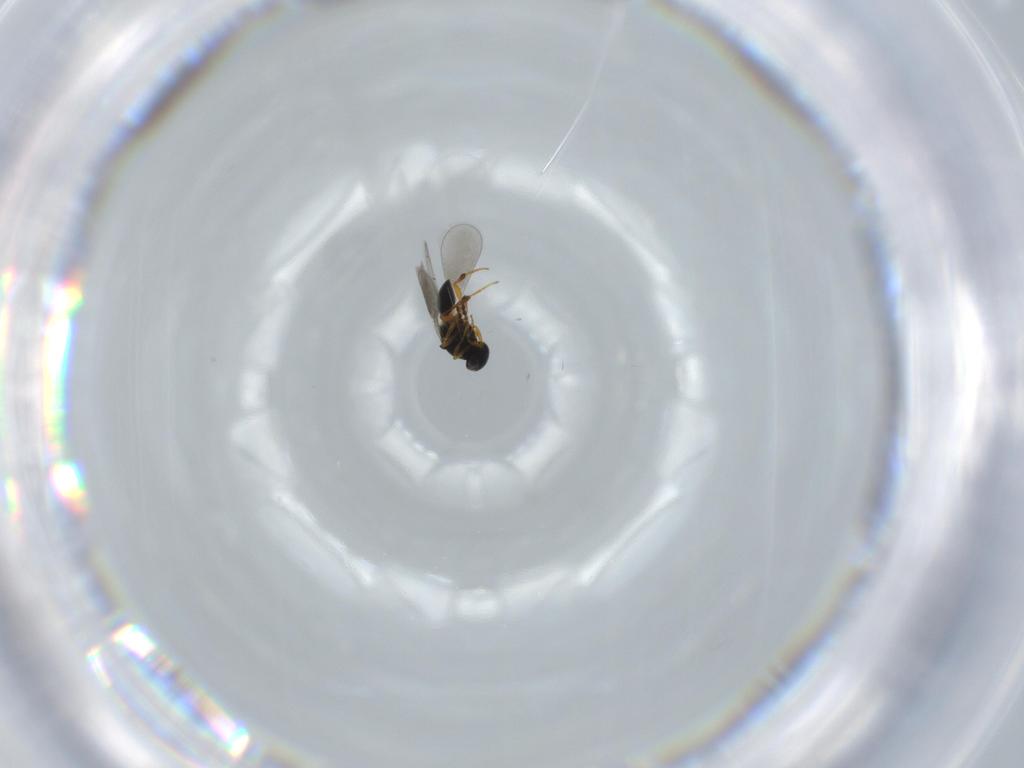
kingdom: Animalia
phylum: Arthropoda
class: Insecta
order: Hymenoptera
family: Platygastridae
